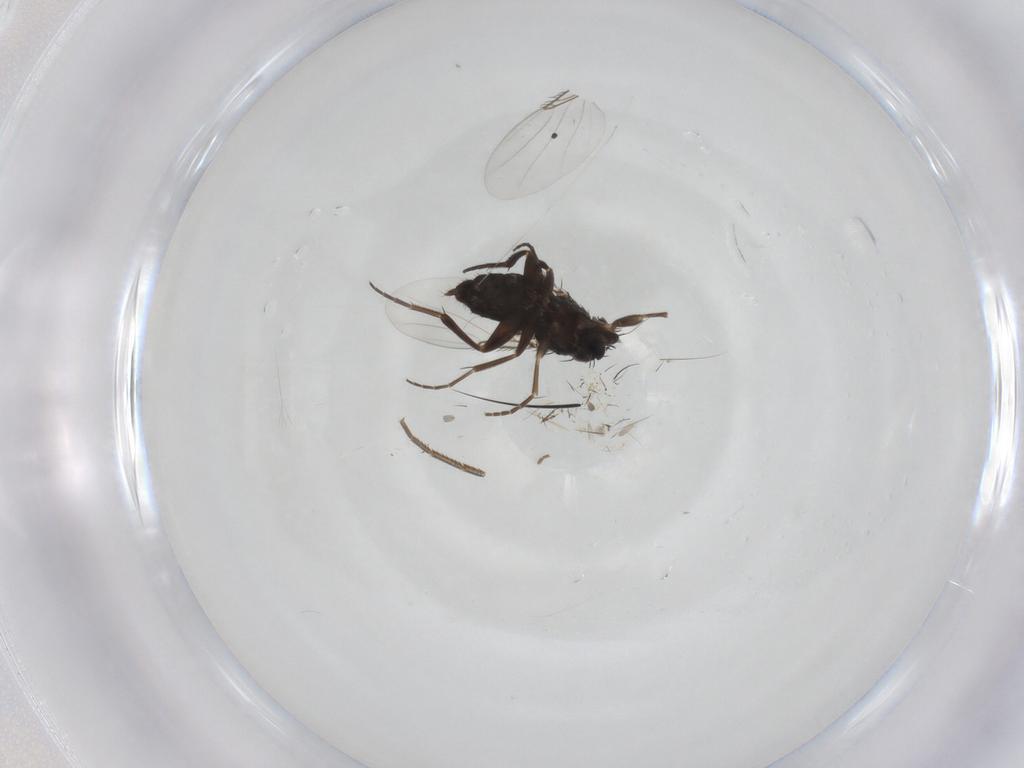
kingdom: Animalia
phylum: Arthropoda
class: Insecta
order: Diptera
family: Phoridae
